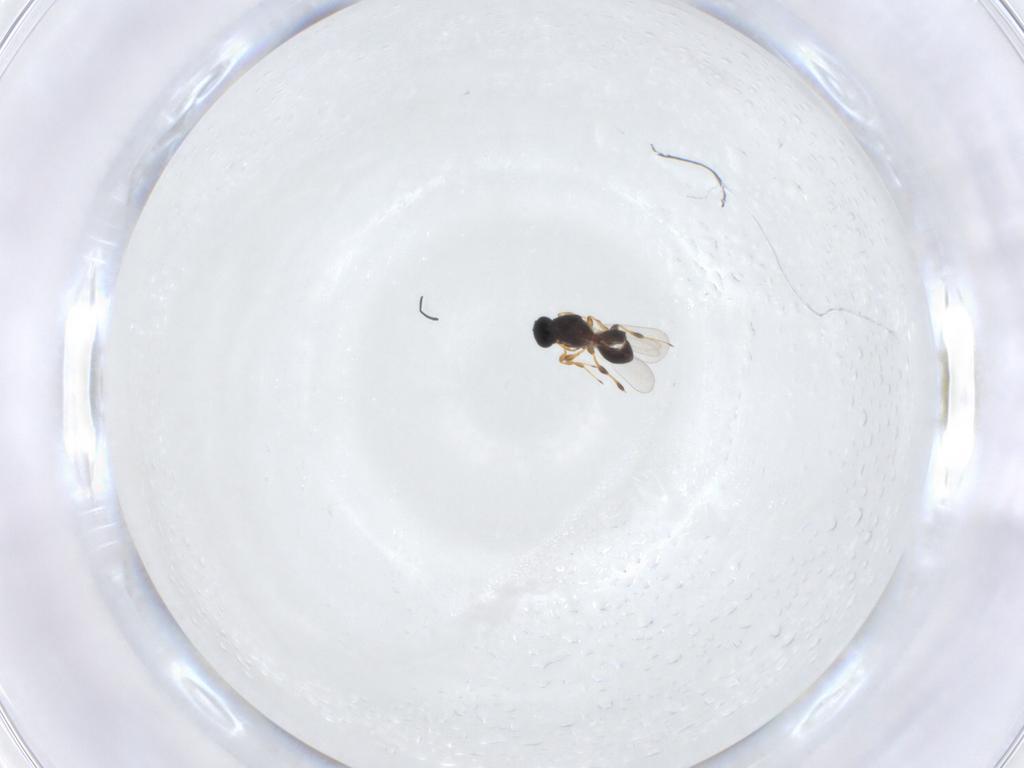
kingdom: Animalia
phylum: Arthropoda
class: Insecta
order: Hymenoptera
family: Platygastridae
